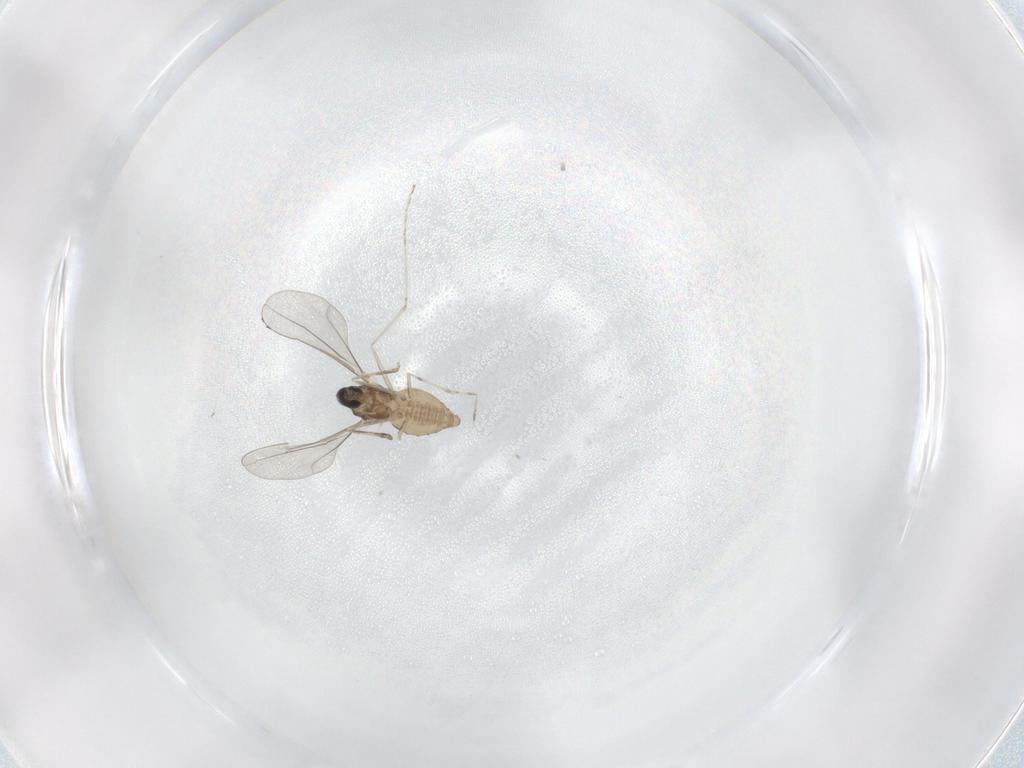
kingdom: Animalia
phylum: Arthropoda
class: Insecta
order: Diptera
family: Cecidomyiidae
